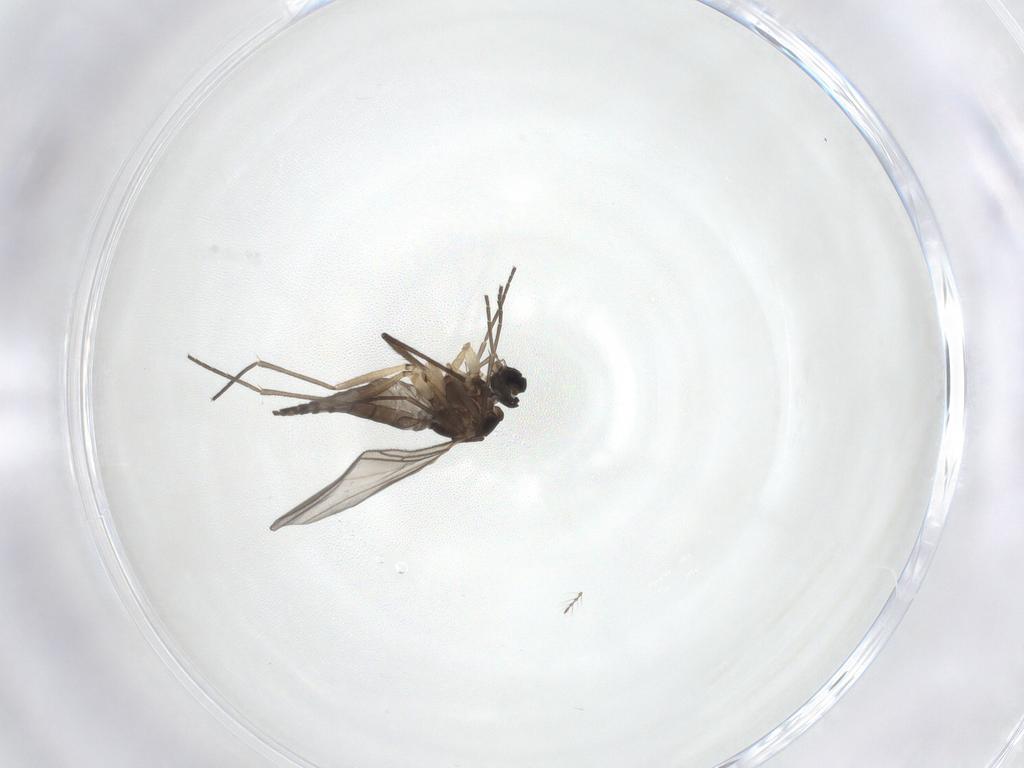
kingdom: Animalia
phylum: Arthropoda
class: Insecta
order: Diptera
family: Sciaridae
